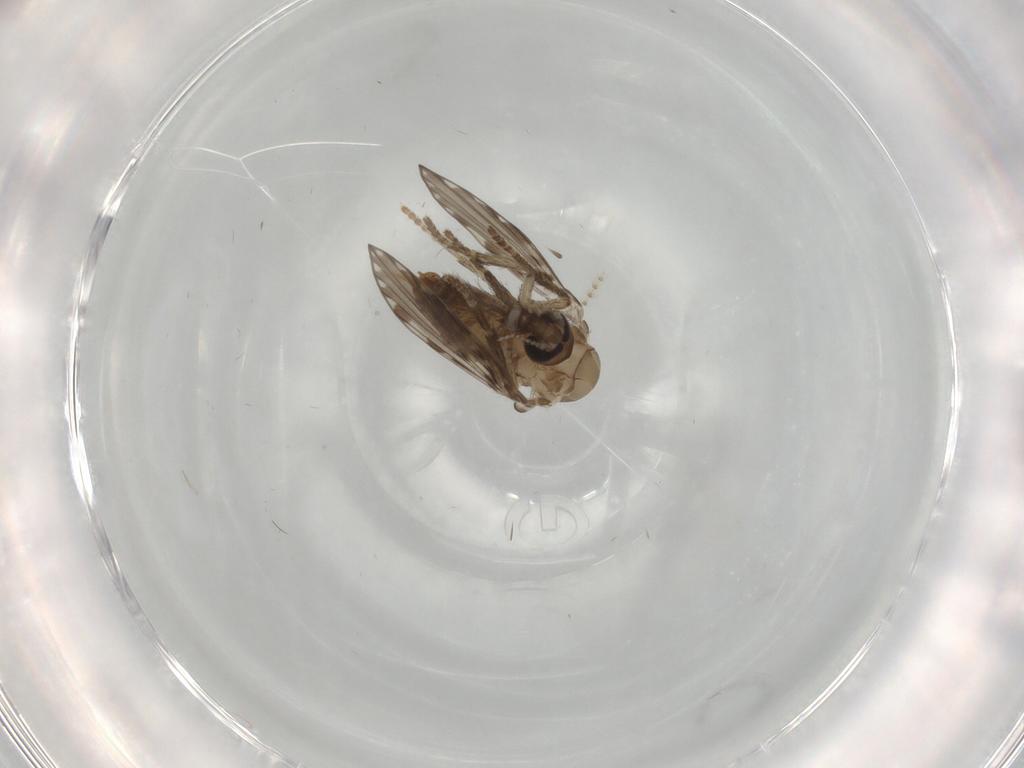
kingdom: Animalia
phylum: Arthropoda
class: Insecta
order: Diptera
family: Psychodidae
